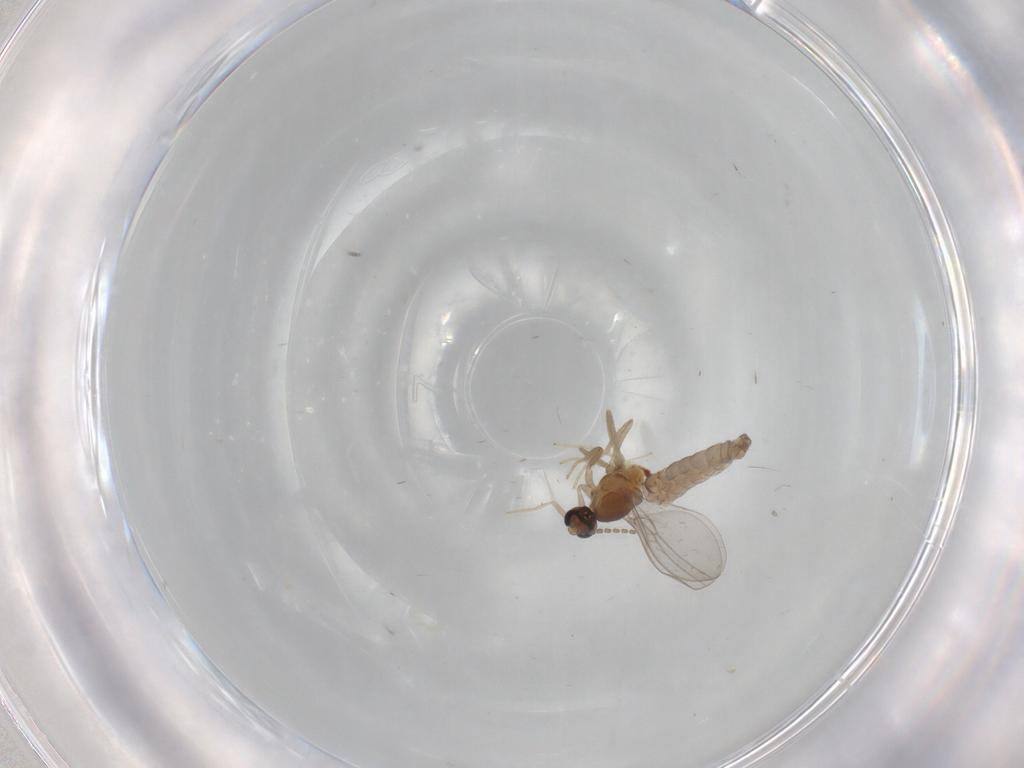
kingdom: Animalia
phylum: Arthropoda
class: Insecta
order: Diptera
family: Cecidomyiidae
